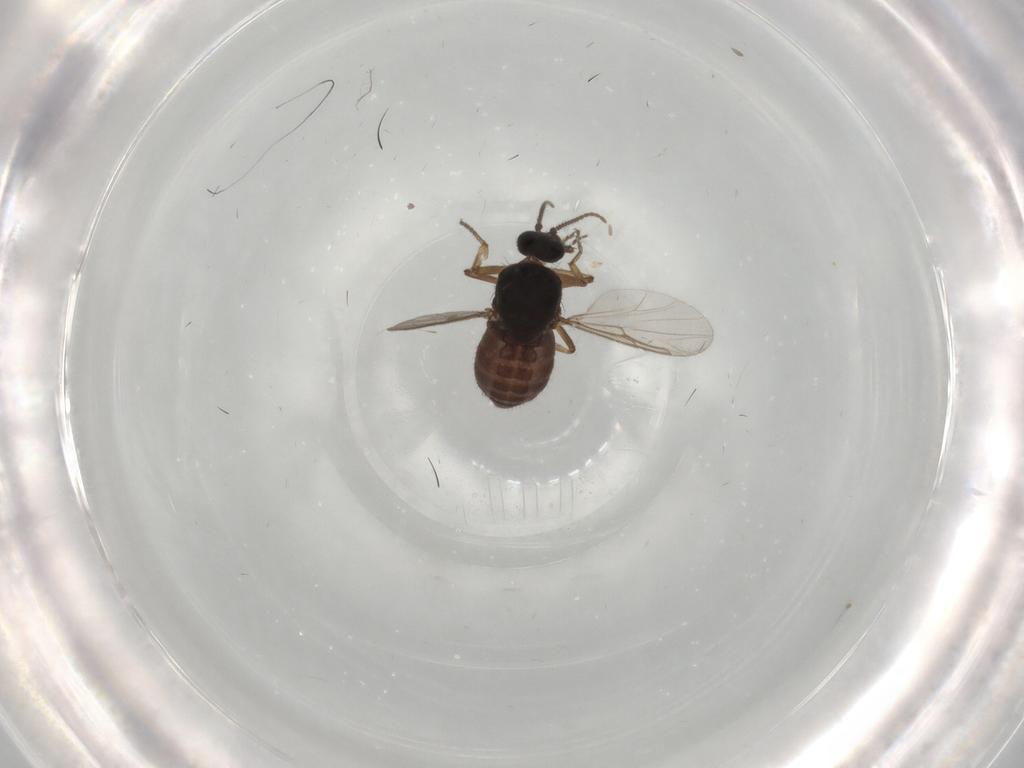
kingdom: Animalia
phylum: Arthropoda
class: Insecta
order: Diptera
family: Ceratopogonidae
